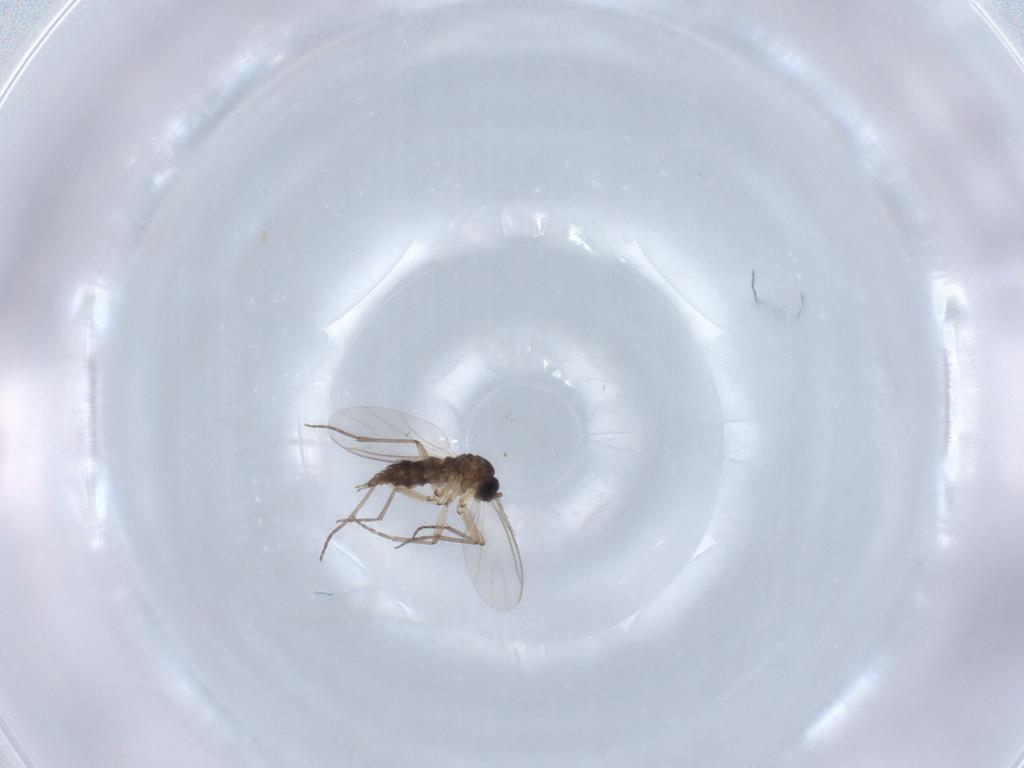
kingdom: Animalia
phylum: Arthropoda
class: Insecta
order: Diptera
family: Sciaridae
